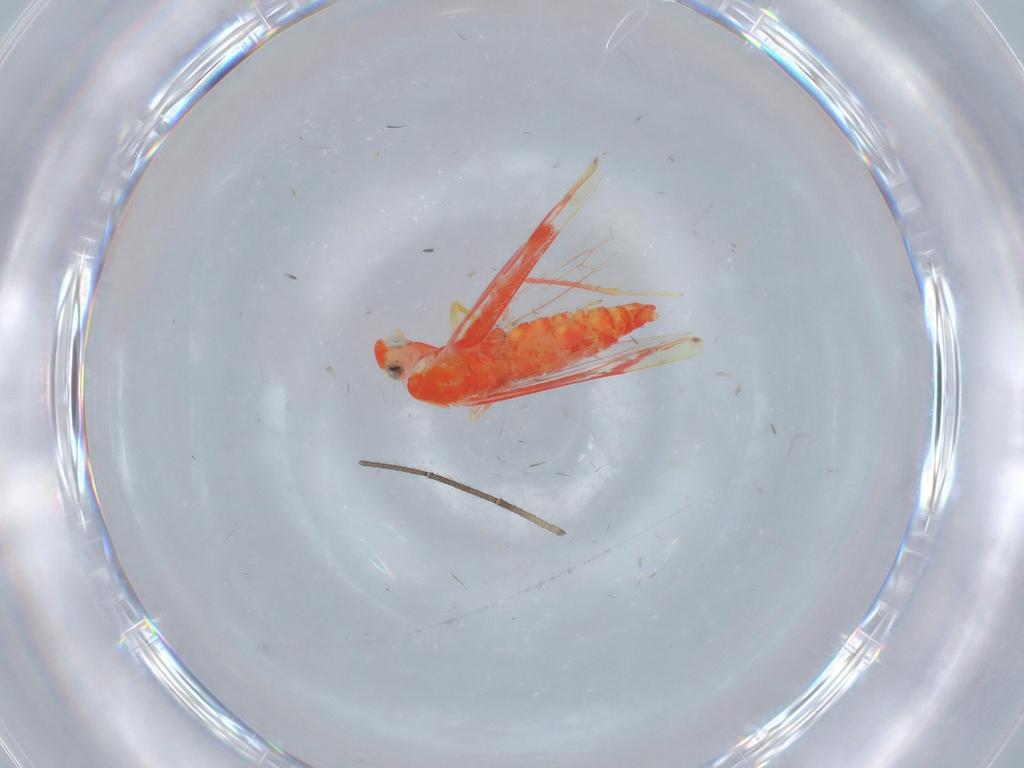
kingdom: Animalia
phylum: Arthropoda
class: Insecta
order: Hemiptera
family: Cicadellidae
